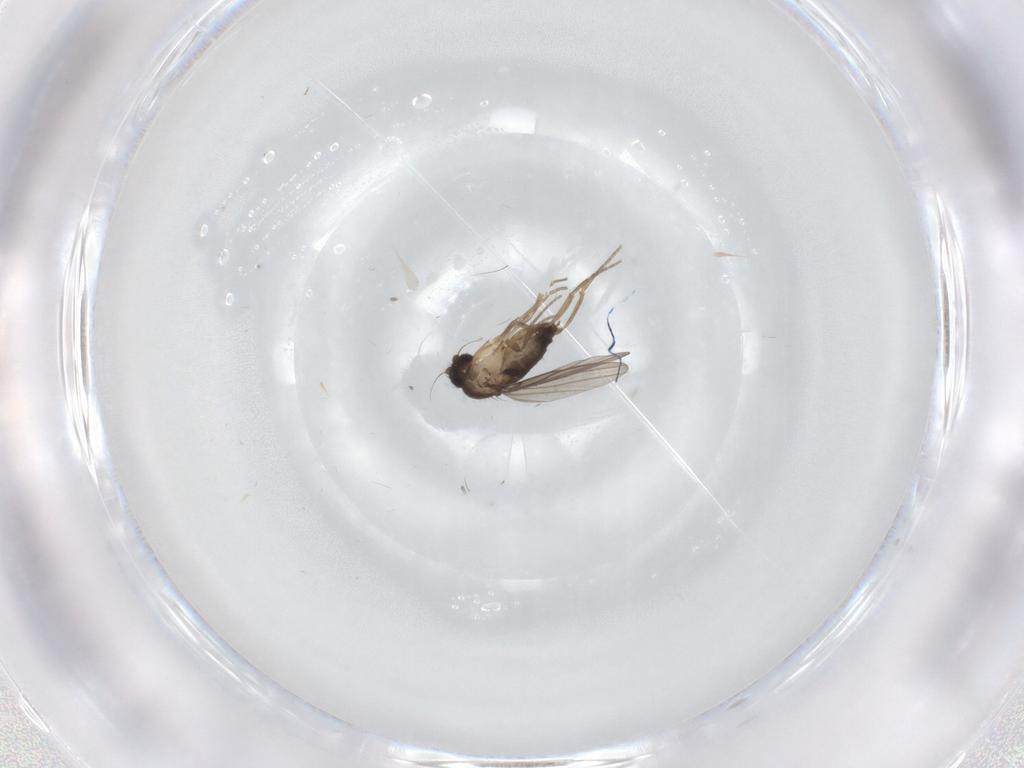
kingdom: Animalia
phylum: Arthropoda
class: Insecta
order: Diptera
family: Phoridae
